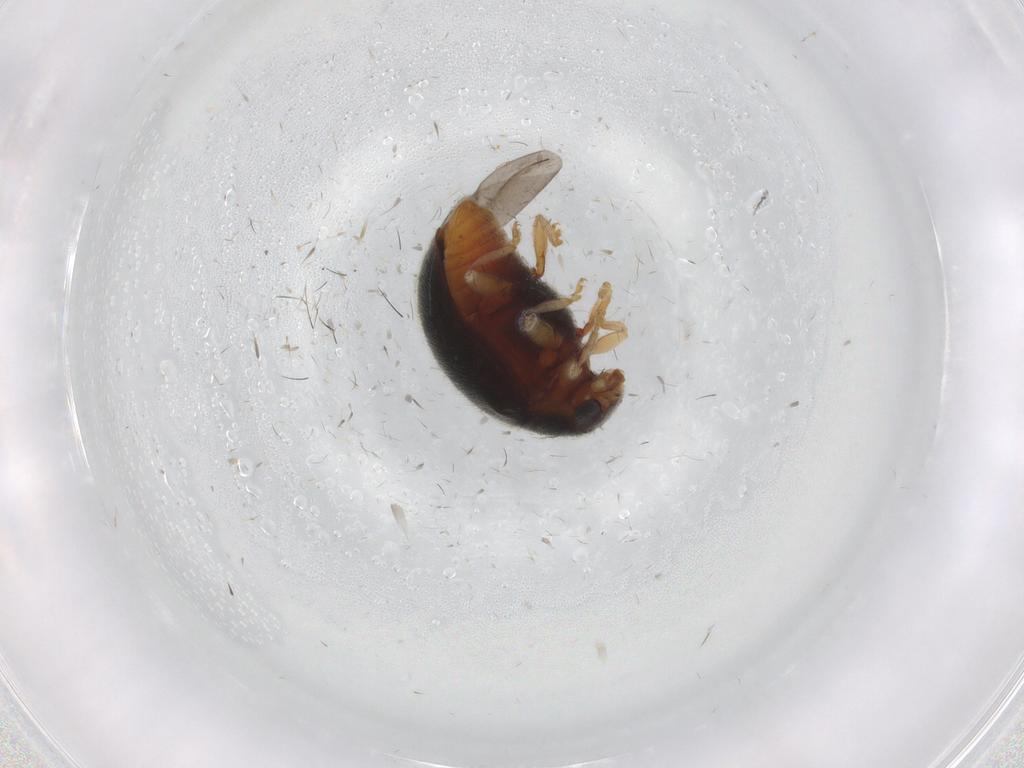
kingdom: Animalia
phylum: Arthropoda
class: Insecta
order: Coleoptera
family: Coccinellidae
